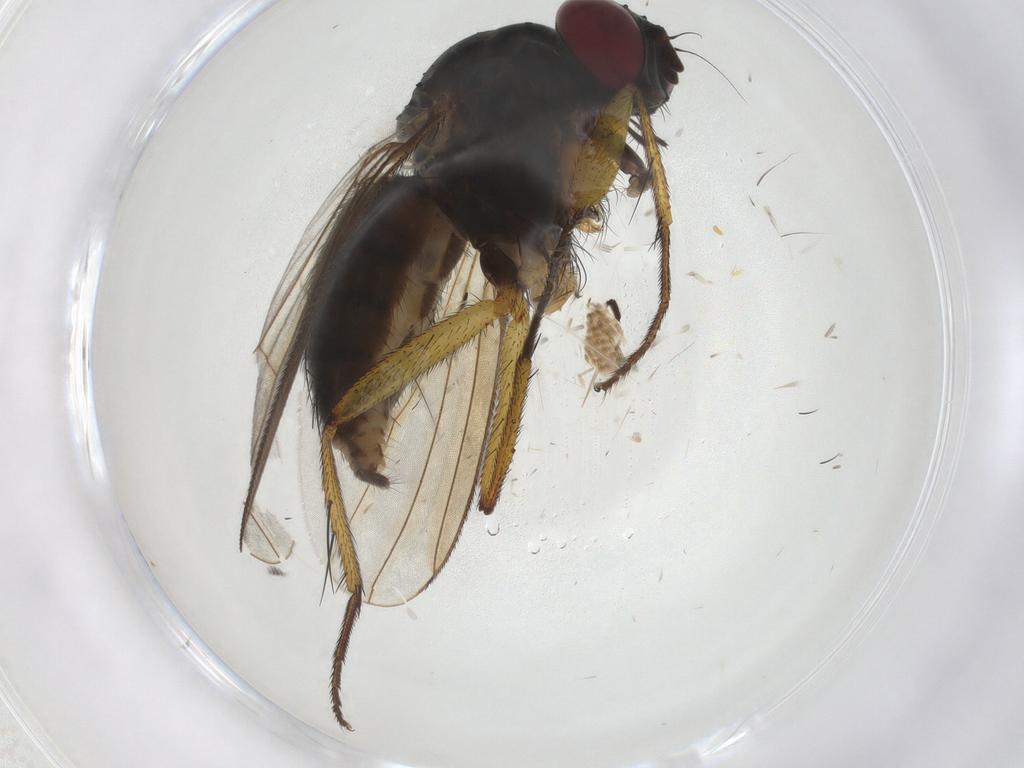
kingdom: Animalia
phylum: Arthropoda
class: Insecta
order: Diptera
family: Muscidae
